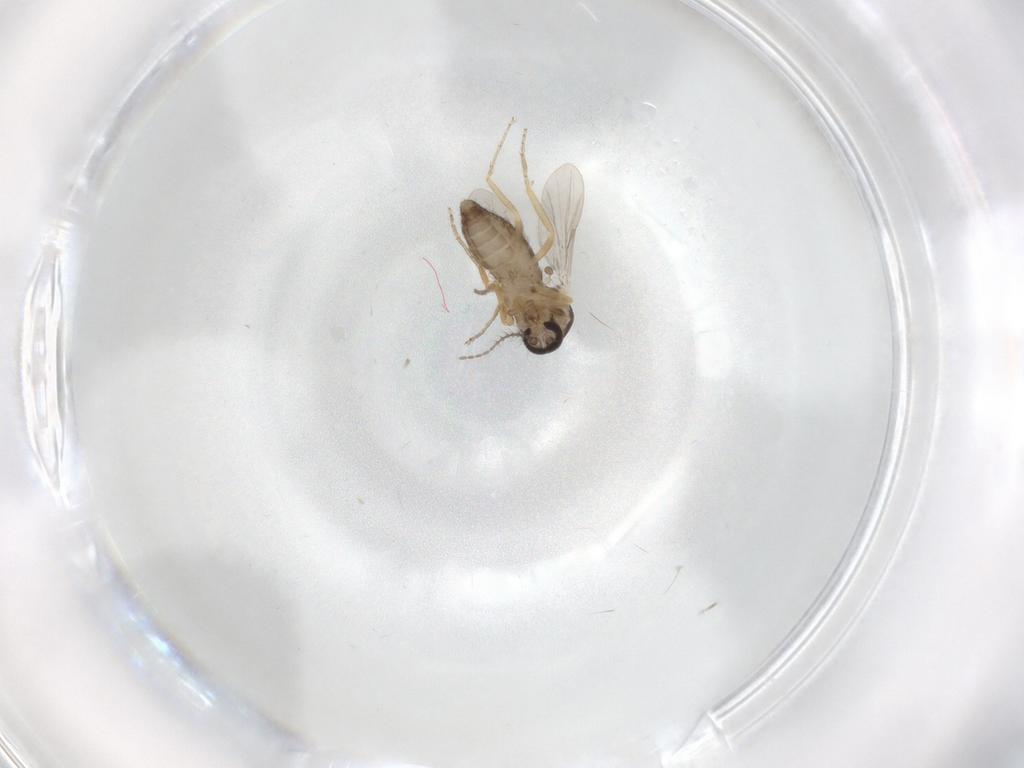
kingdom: Animalia
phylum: Arthropoda
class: Insecta
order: Diptera
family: Ceratopogonidae
